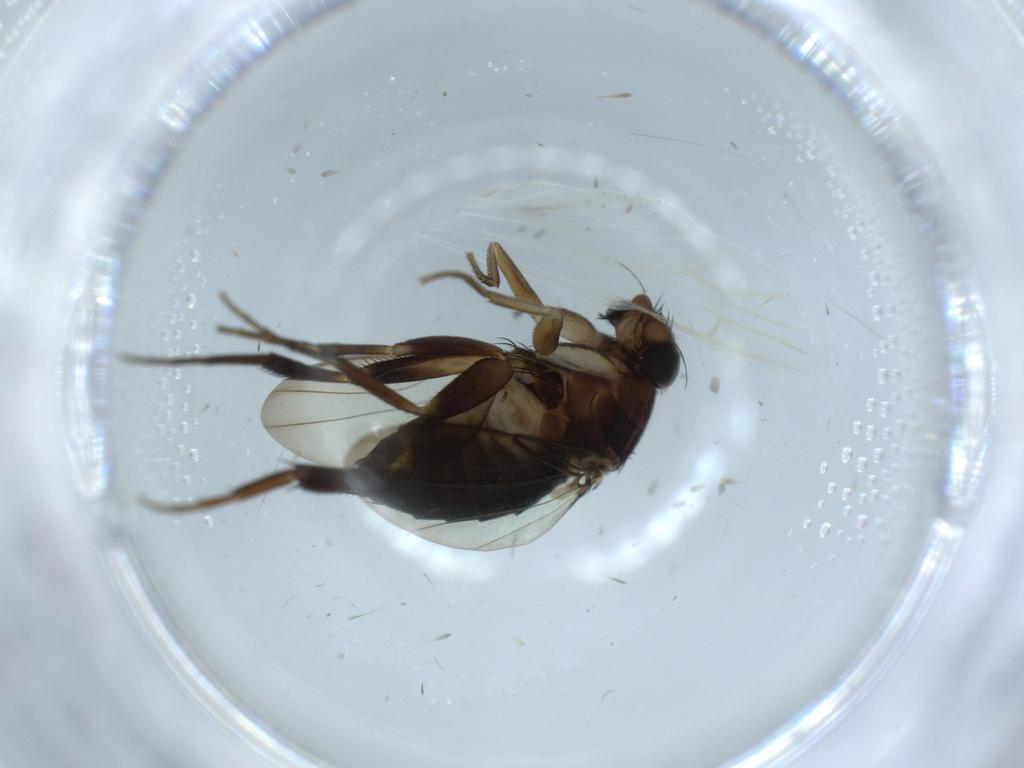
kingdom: Animalia
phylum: Arthropoda
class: Insecta
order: Diptera
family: Phoridae
